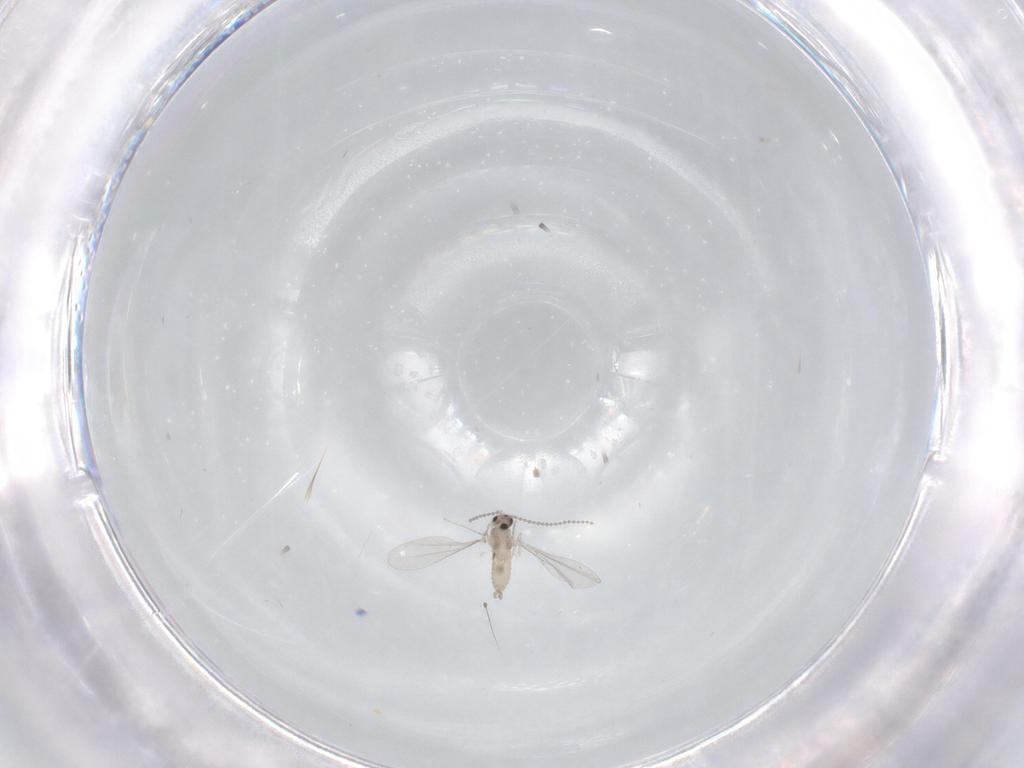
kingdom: Animalia
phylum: Arthropoda
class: Insecta
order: Diptera
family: Cecidomyiidae
